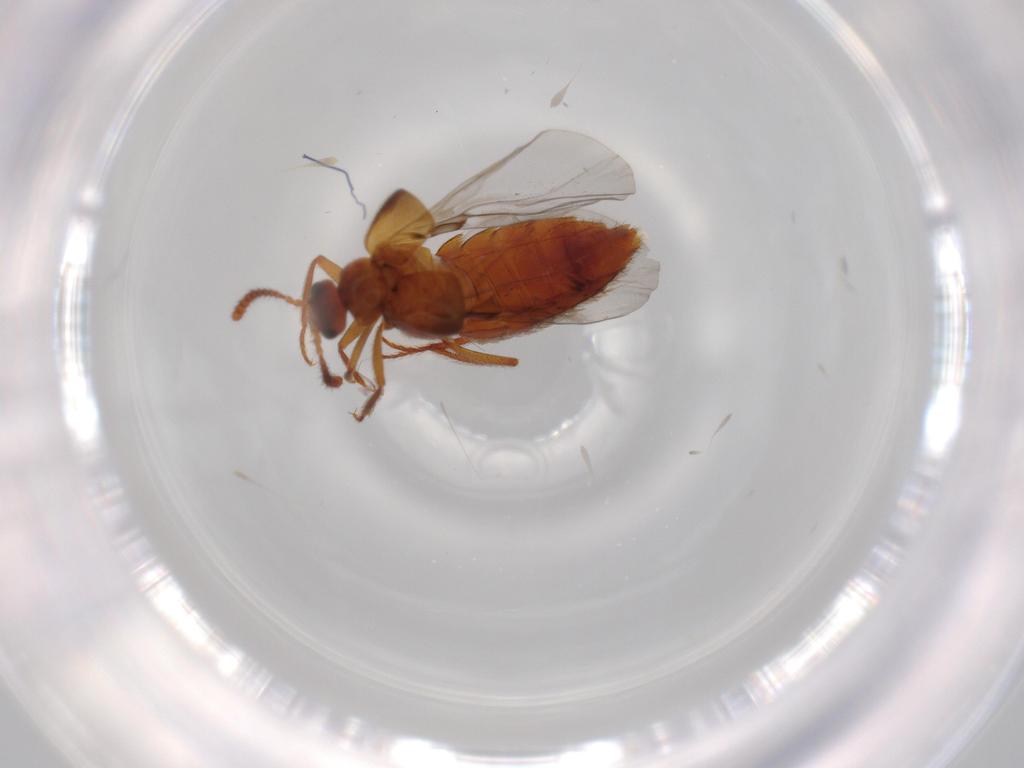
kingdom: Animalia
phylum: Arthropoda
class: Insecta
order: Coleoptera
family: Staphylinidae
